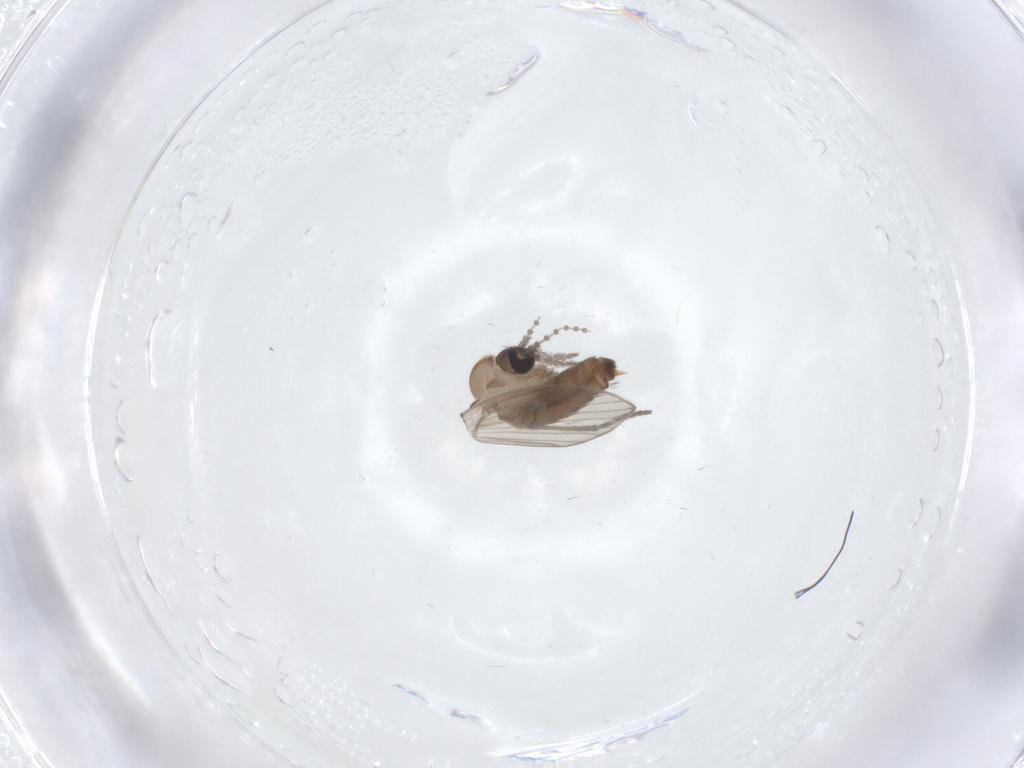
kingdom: Animalia
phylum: Arthropoda
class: Insecta
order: Diptera
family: Psychodidae
